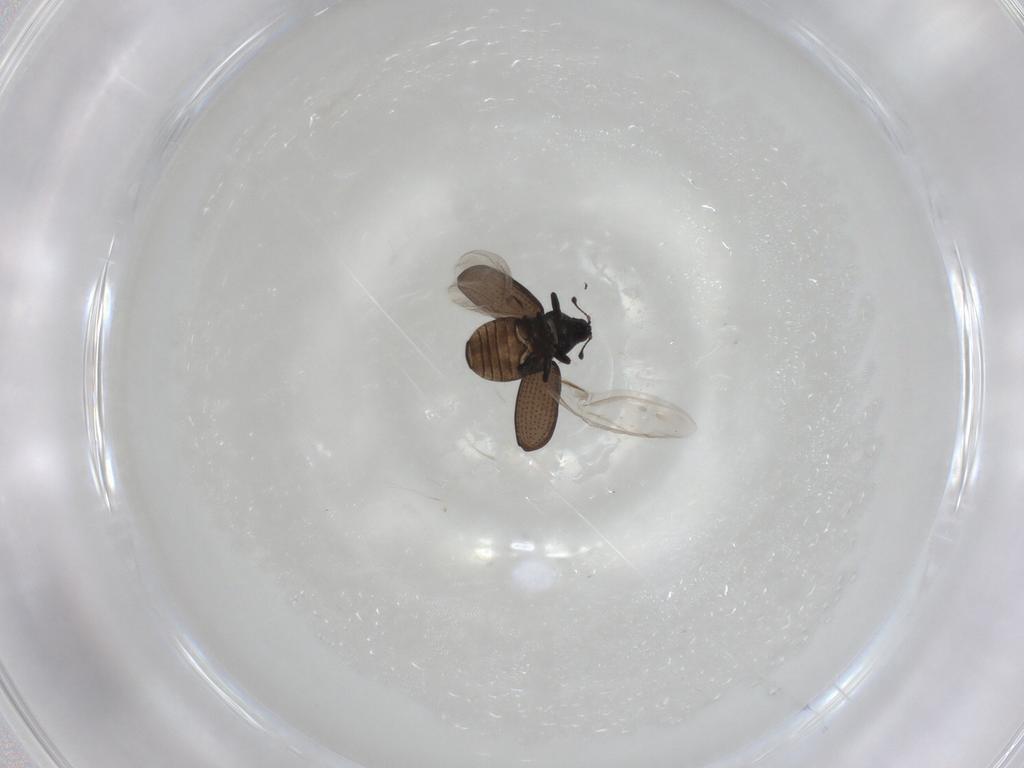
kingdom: Animalia
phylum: Arthropoda
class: Insecta
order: Coleoptera
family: Curculionidae
